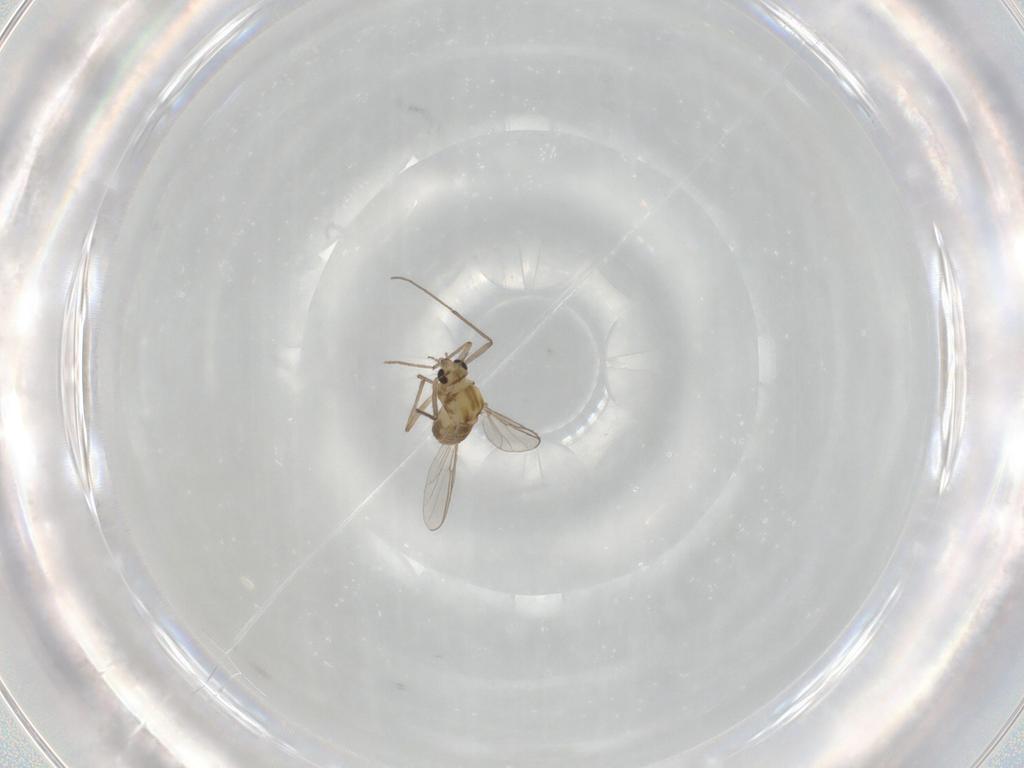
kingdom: Animalia
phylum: Arthropoda
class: Insecta
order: Diptera
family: Chironomidae
